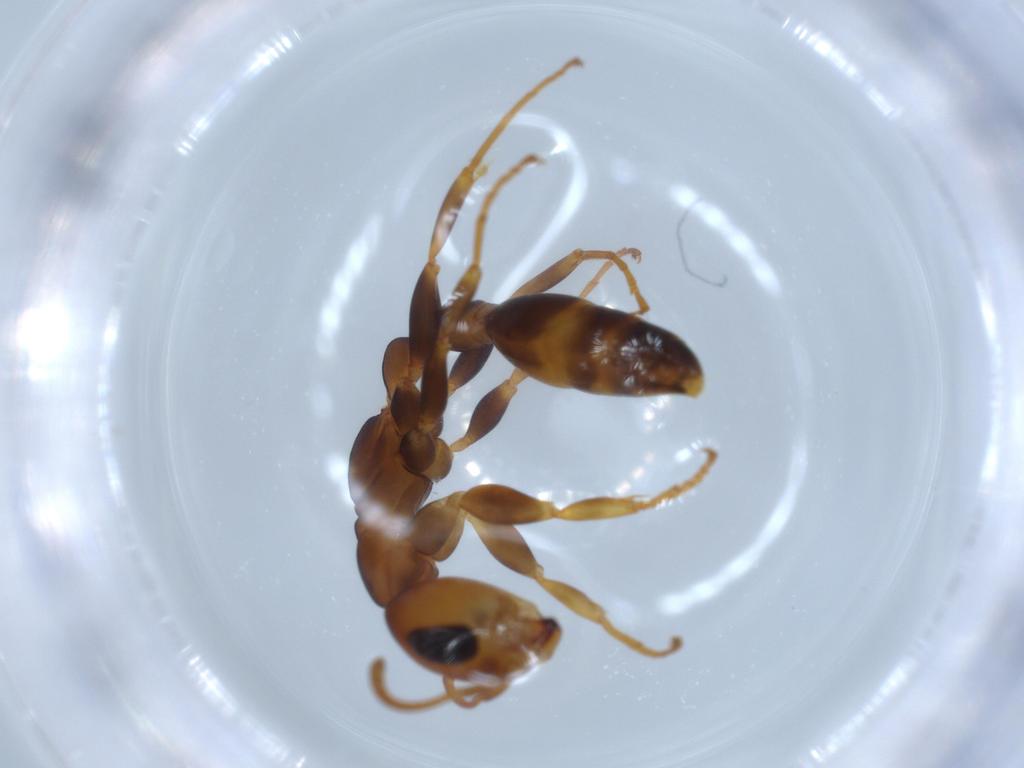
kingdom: Animalia
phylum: Arthropoda
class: Insecta
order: Hymenoptera
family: Formicidae
